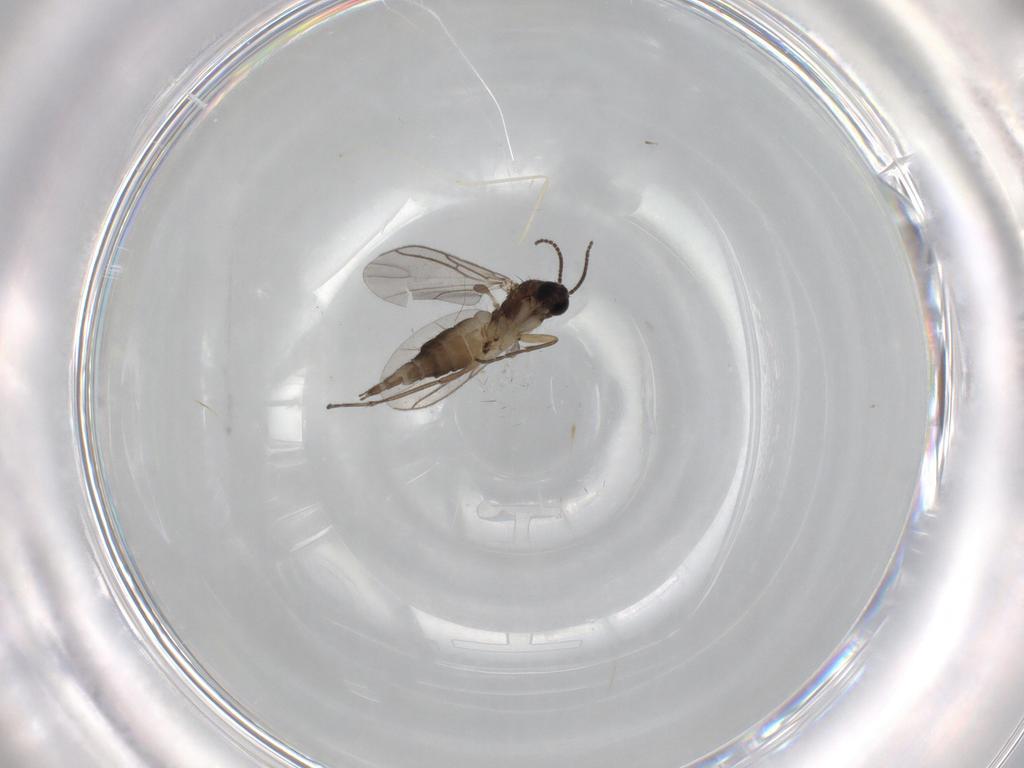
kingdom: Animalia
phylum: Arthropoda
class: Insecta
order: Diptera
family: Sciaridae
